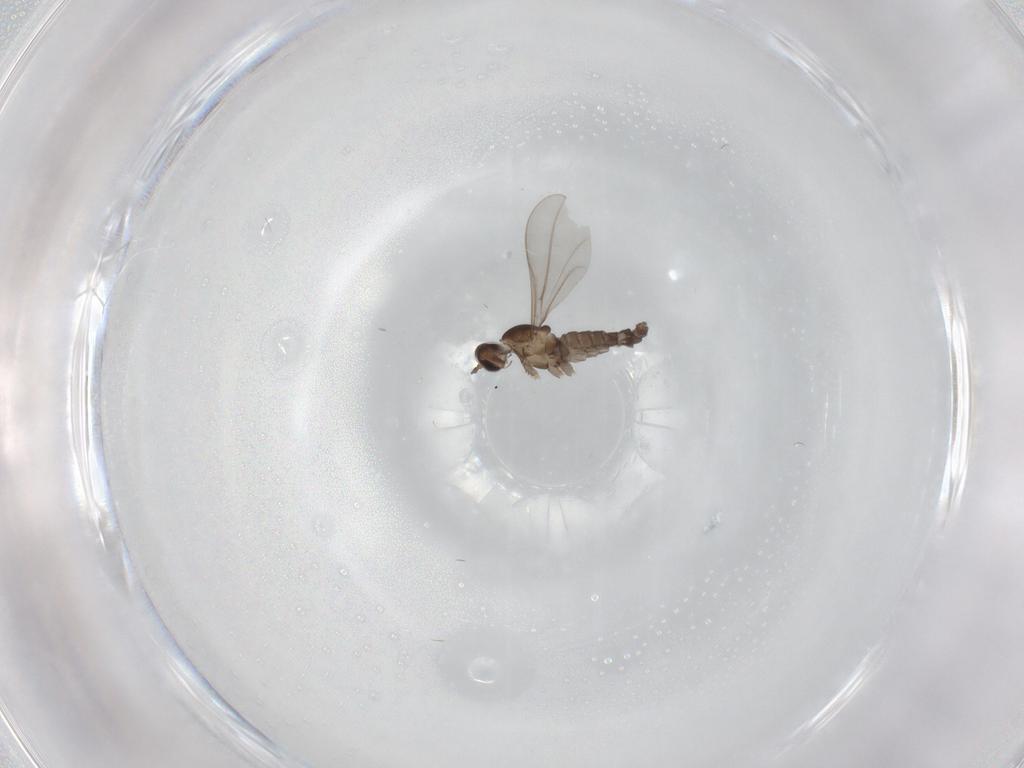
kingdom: Animalia
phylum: Arthropoda
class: Insecta
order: Diptera
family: Cecidomyiidae
